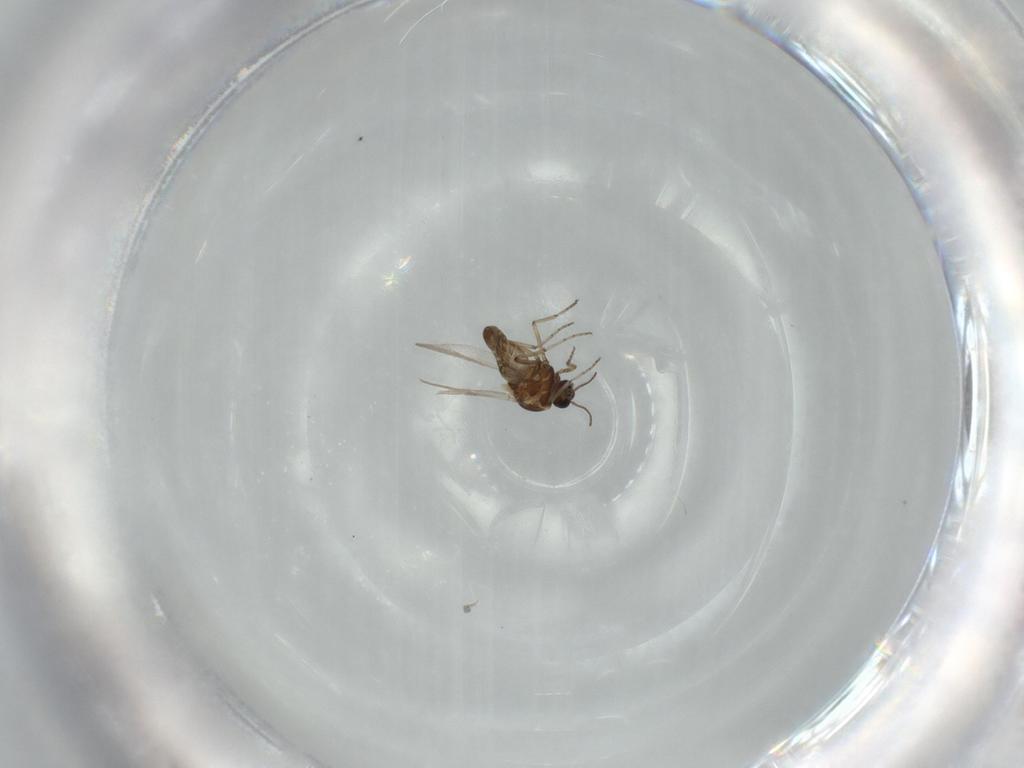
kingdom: Animalia
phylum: Arthropoda
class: Insecta
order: Diptera
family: Ceratopogonidae
